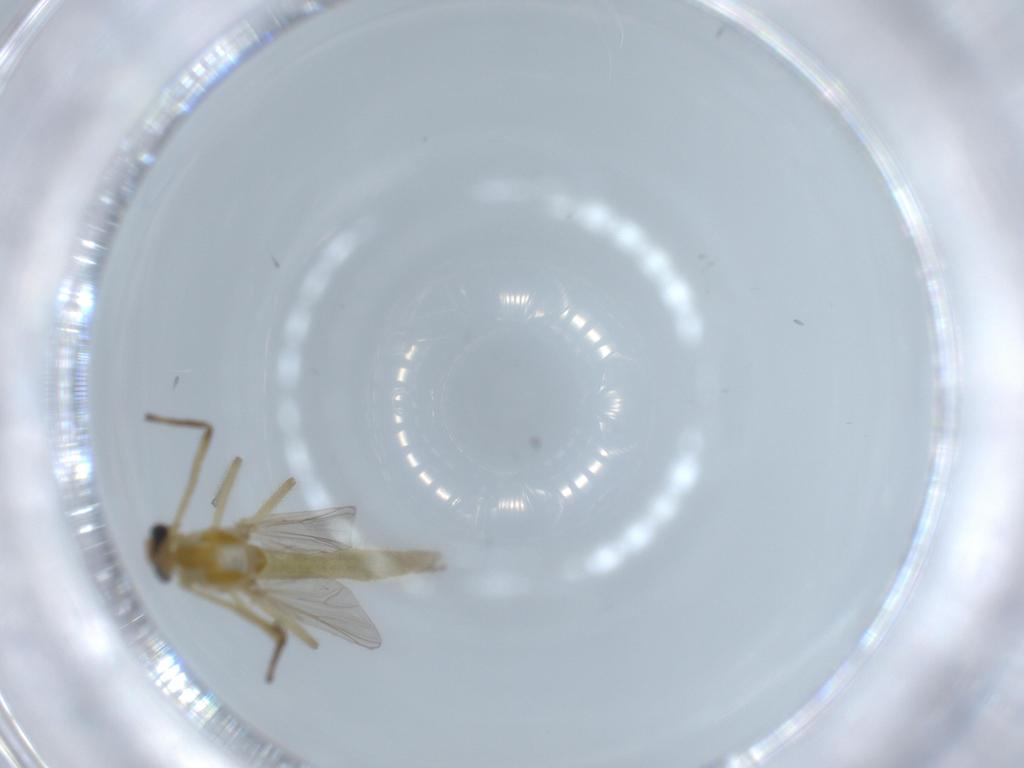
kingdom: Animalia
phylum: Arthropoda
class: Insecta
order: Diptera
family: Chironomidae
